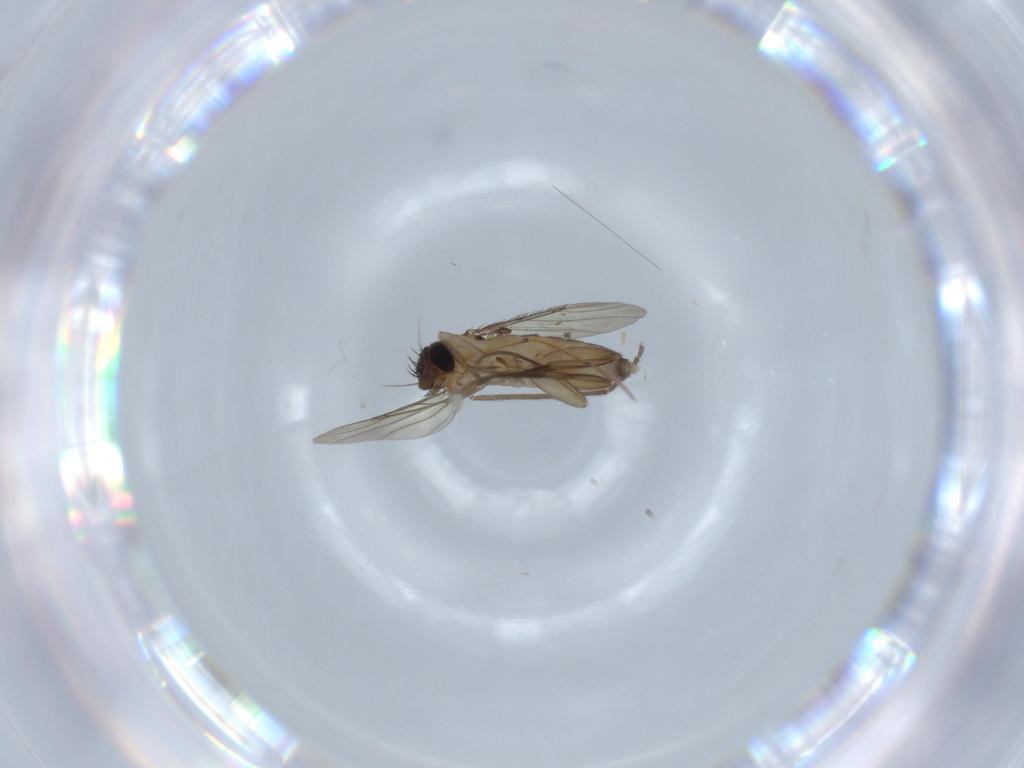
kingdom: Animalia
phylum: Arthropoda
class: Insecta
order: Diptera
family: Phoridae
